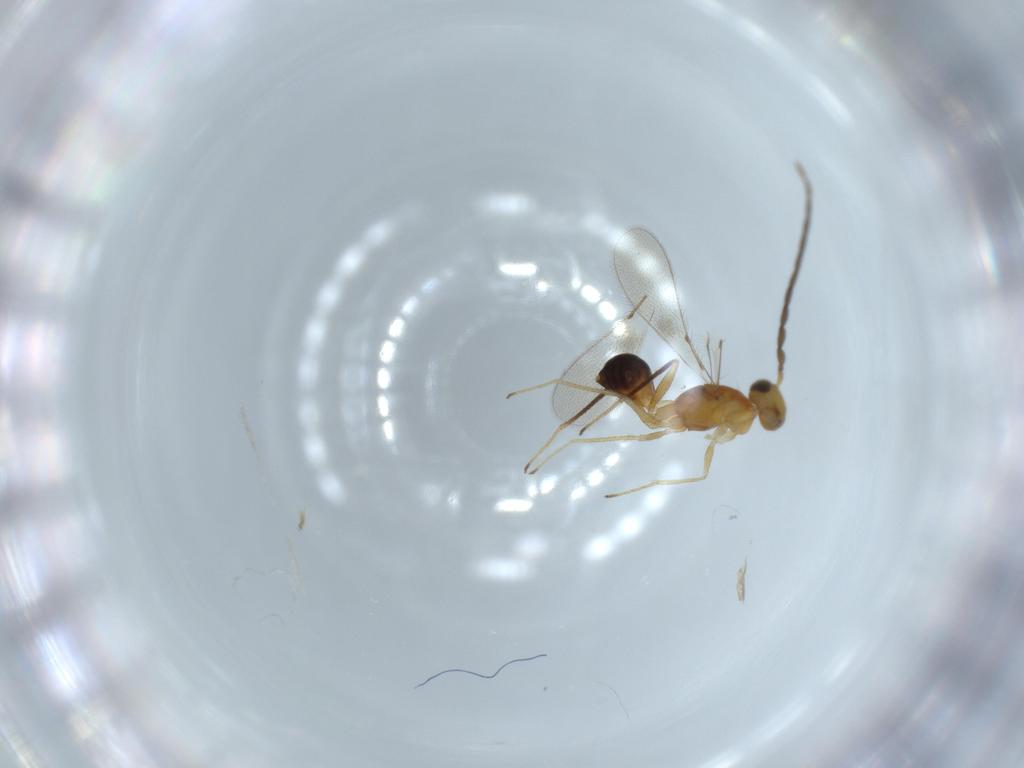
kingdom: Animalia
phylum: Arthropoda
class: Insecta
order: Hymenoptera
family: Mymaridae
